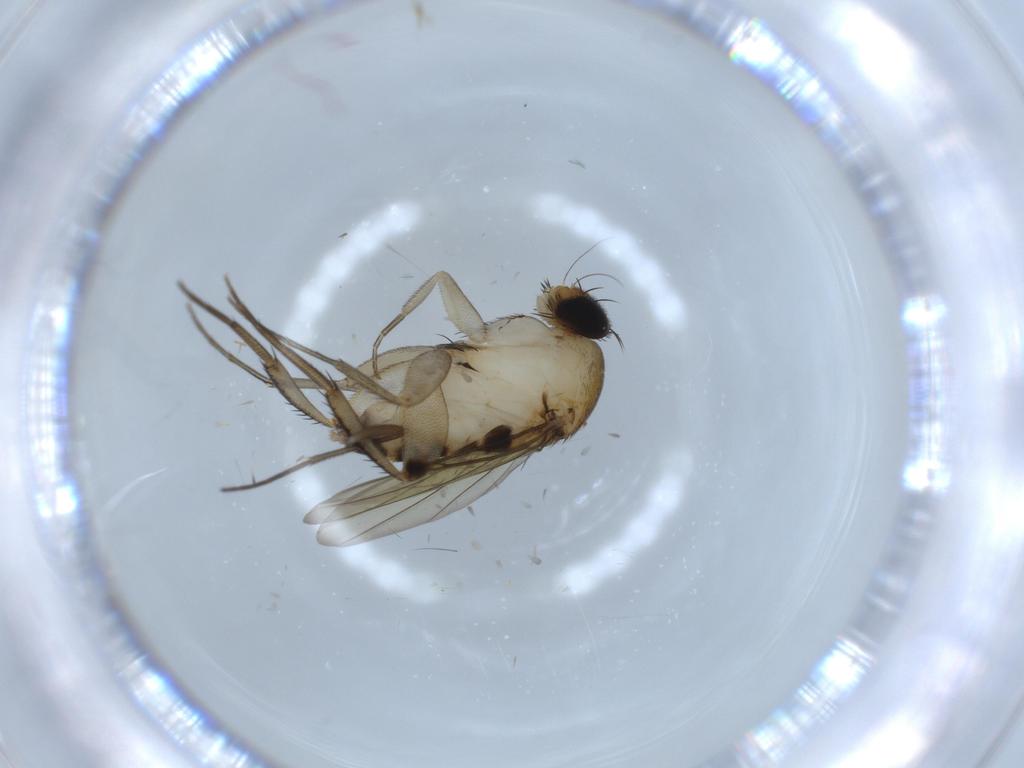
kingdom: Animalia
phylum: Arthropoda
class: Insecta
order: Diptera
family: Phoridae
